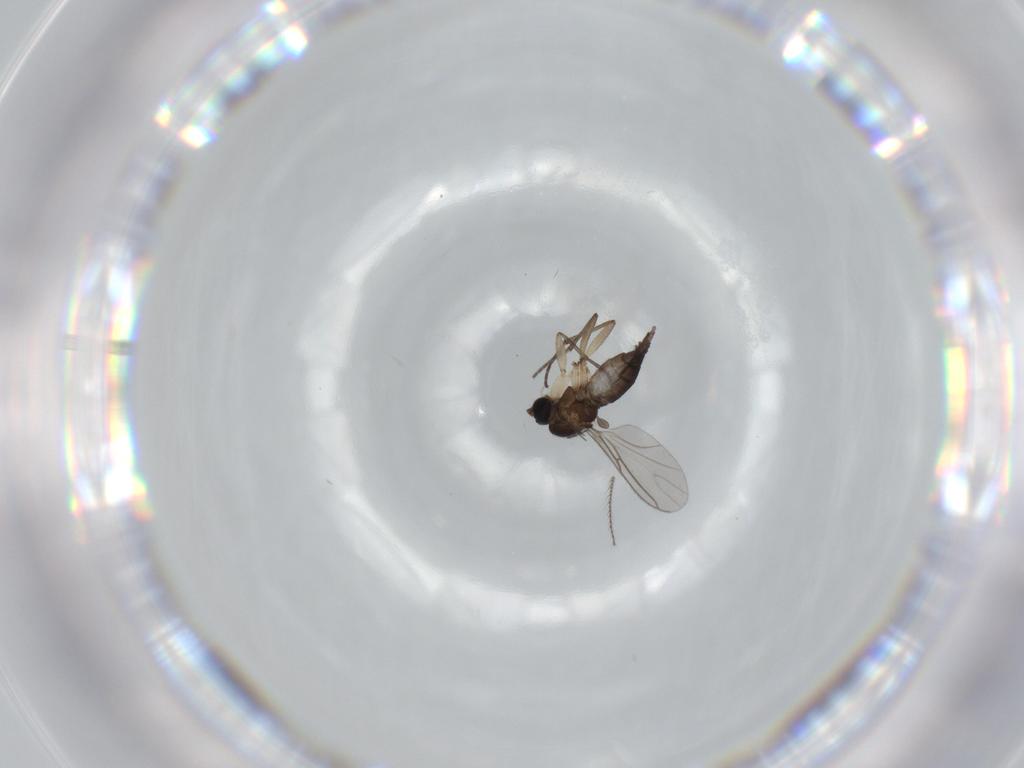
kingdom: Animalia
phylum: Arthropoda
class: Insecta
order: Diptera
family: Sciaridae
